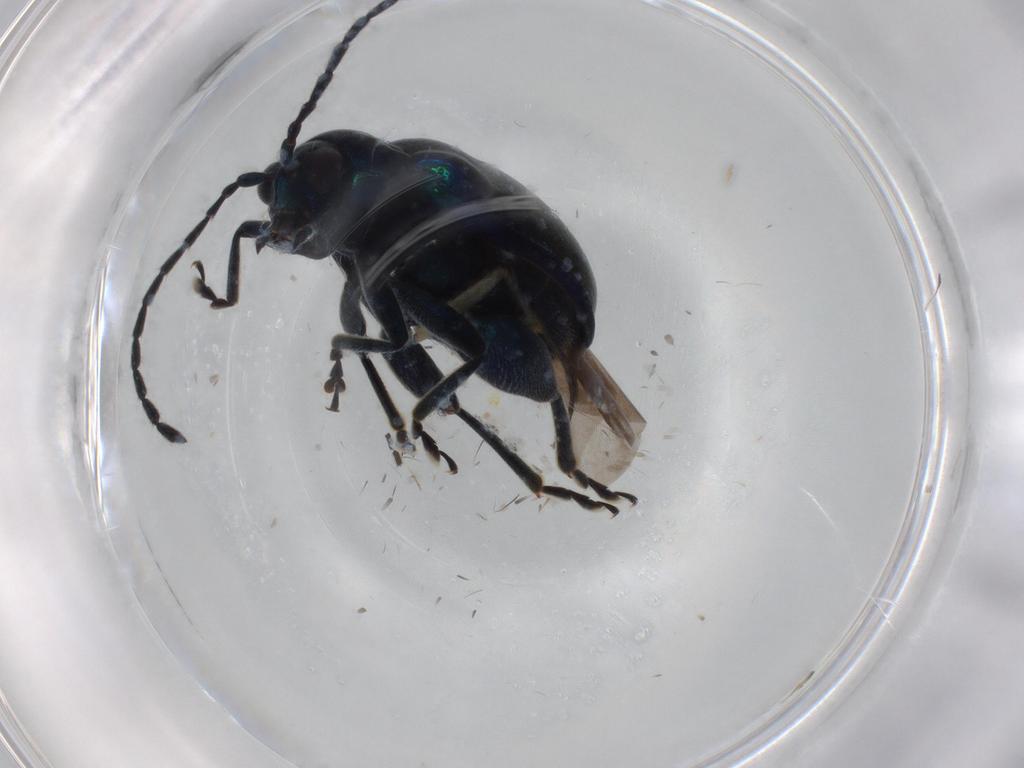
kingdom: Animalia
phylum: Arthropoda
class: Insecta
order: Coleoptera
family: Chrysomelidae
